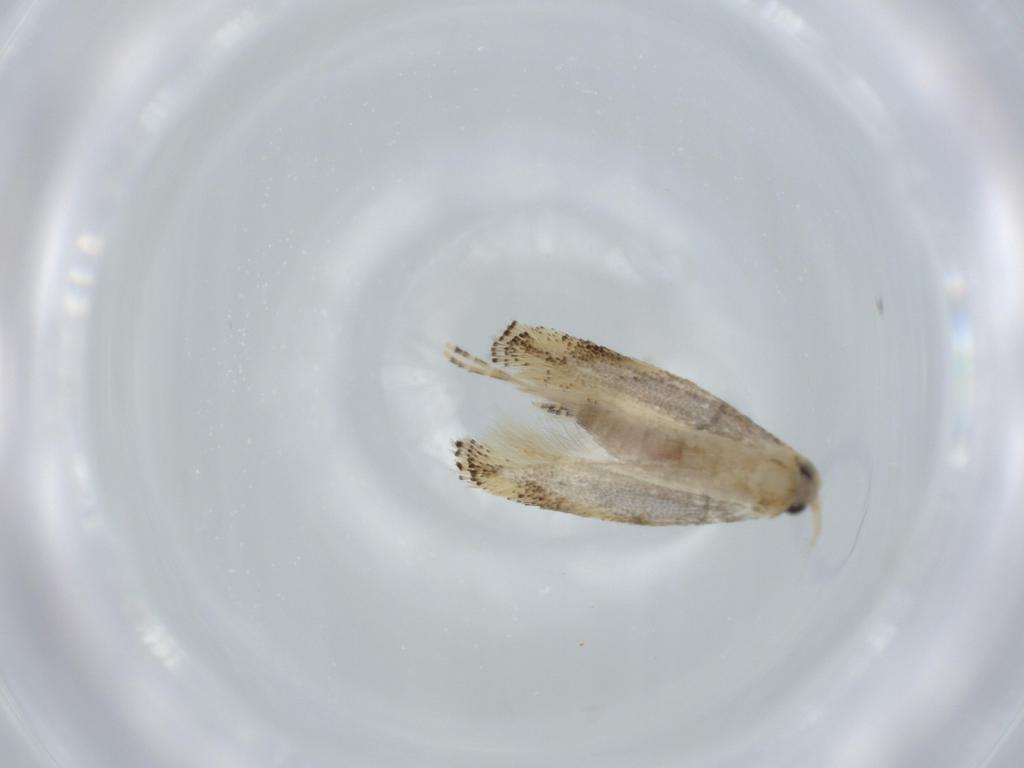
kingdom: Animalia
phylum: Arthropoda
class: Insecta
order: Lepidoptera
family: Bucculatricidae
